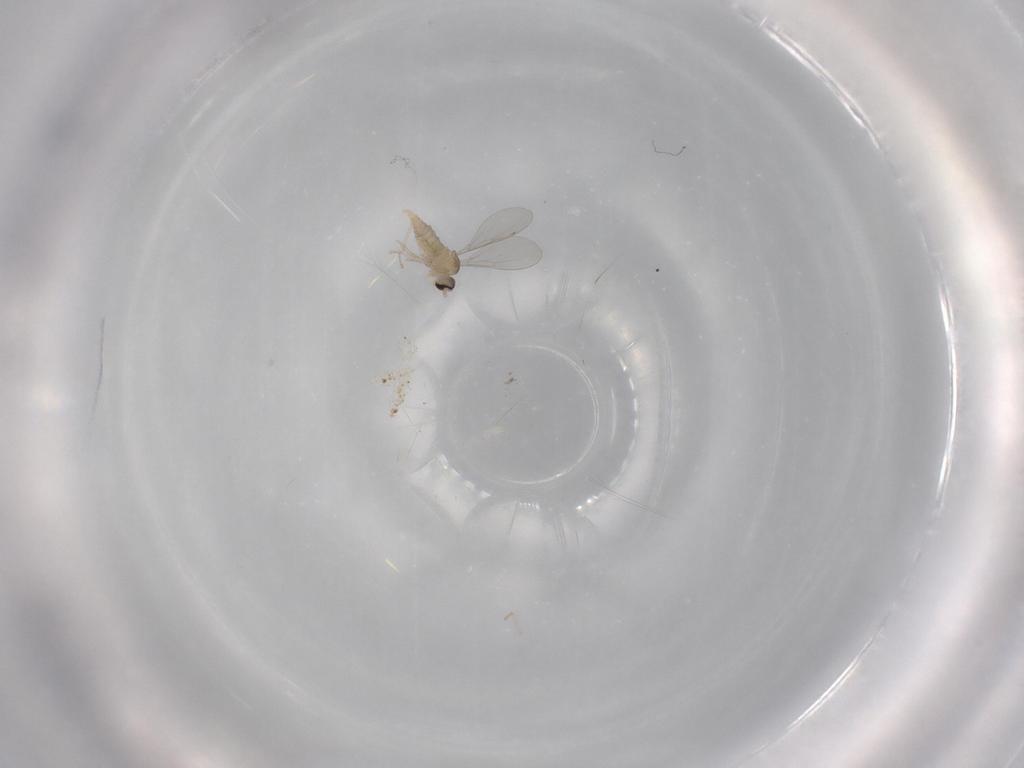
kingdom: Animalia
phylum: Arthropoda
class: Insecta
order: Diptera
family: Cecidomyiidae
